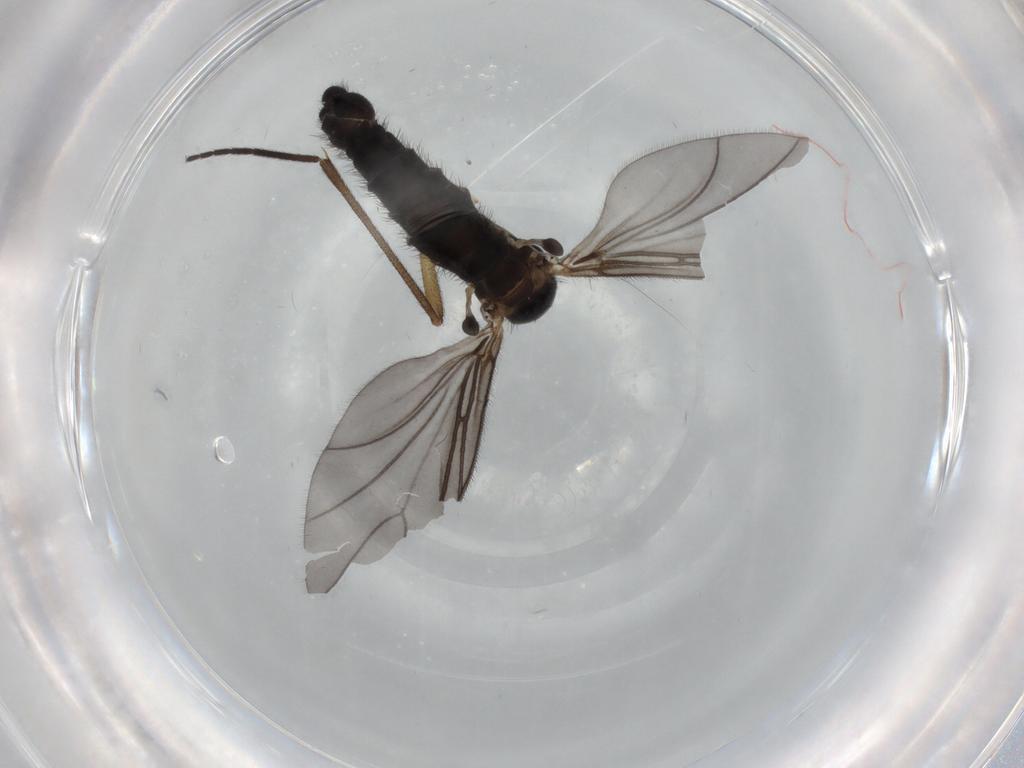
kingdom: Animalia
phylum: Arthropoda
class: Insecta
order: Diptera
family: Sciaridae
